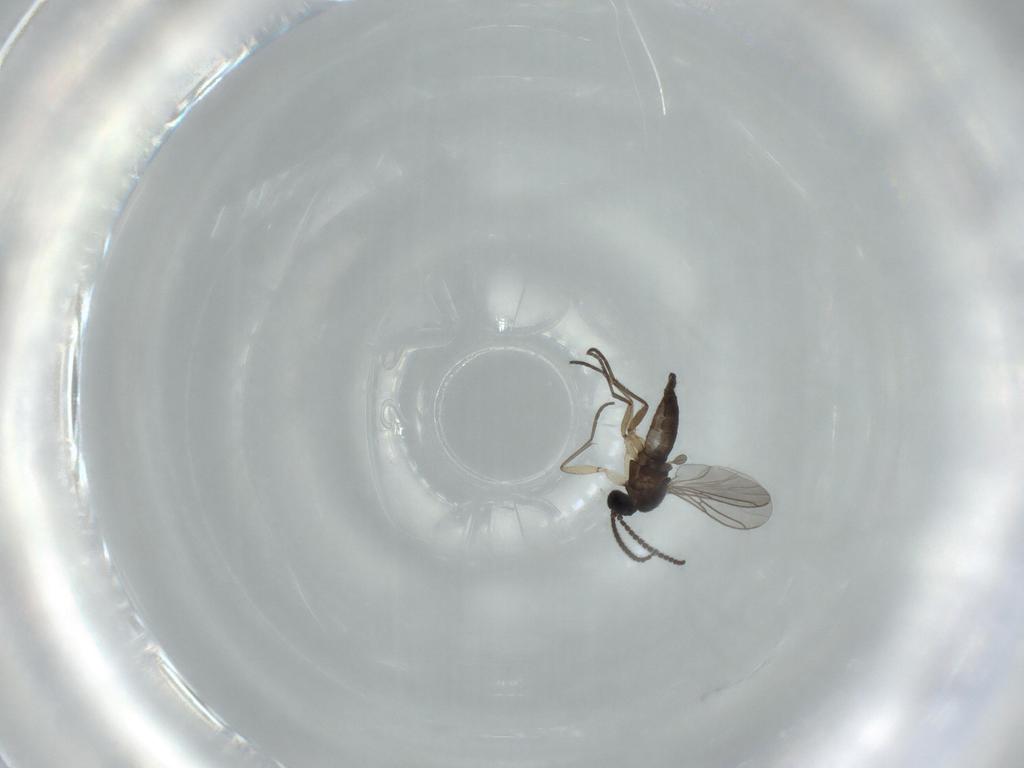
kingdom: Animalia
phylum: Arthropoda
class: Insecta
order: Diptera
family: Sciaridae
